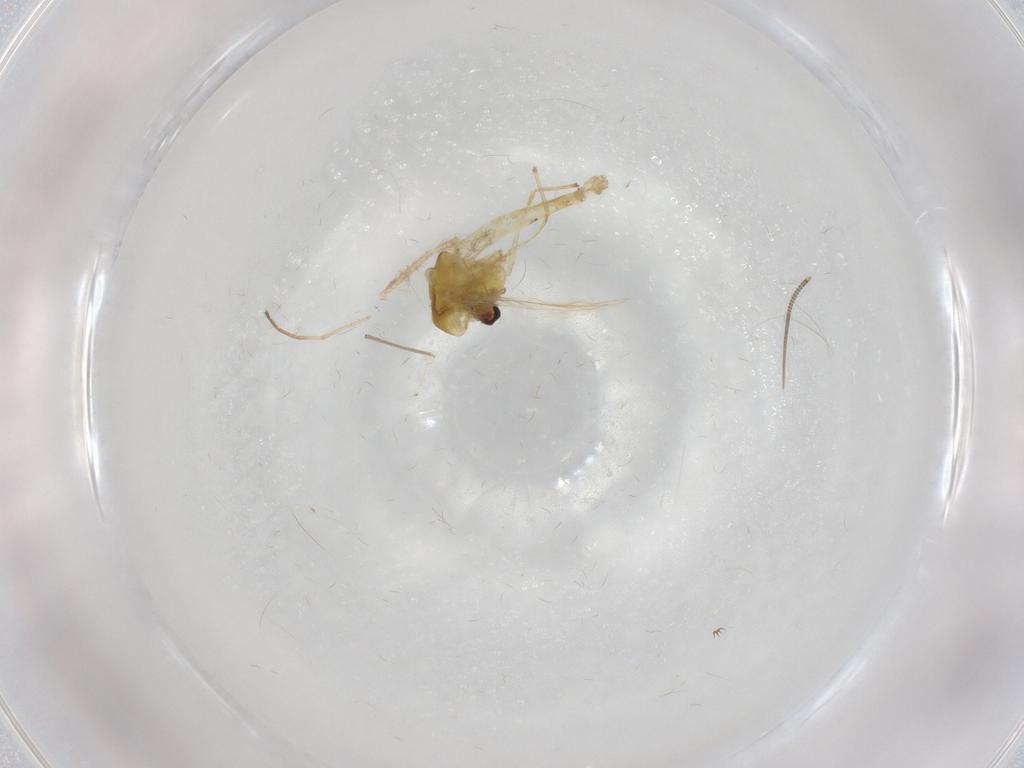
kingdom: Animalia
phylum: Arthropoda
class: Insecta
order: Diptera
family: Chironomidae
